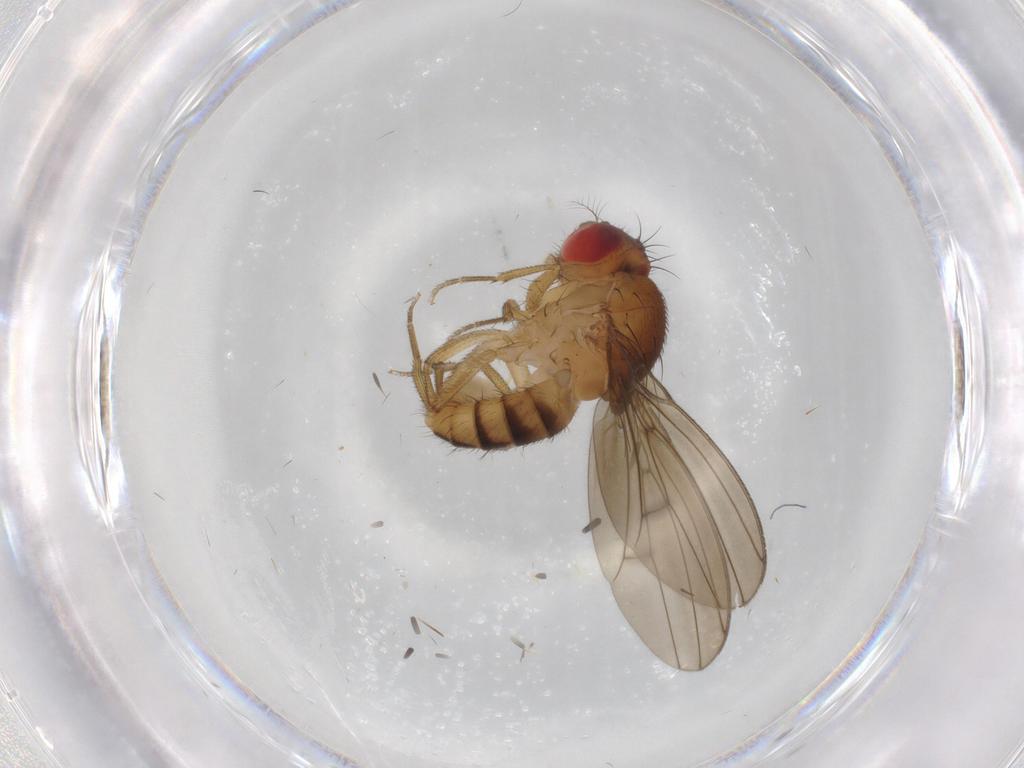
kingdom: Animalia
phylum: Arthropoda
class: Insecta
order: Diptera
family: Drosophilidae
